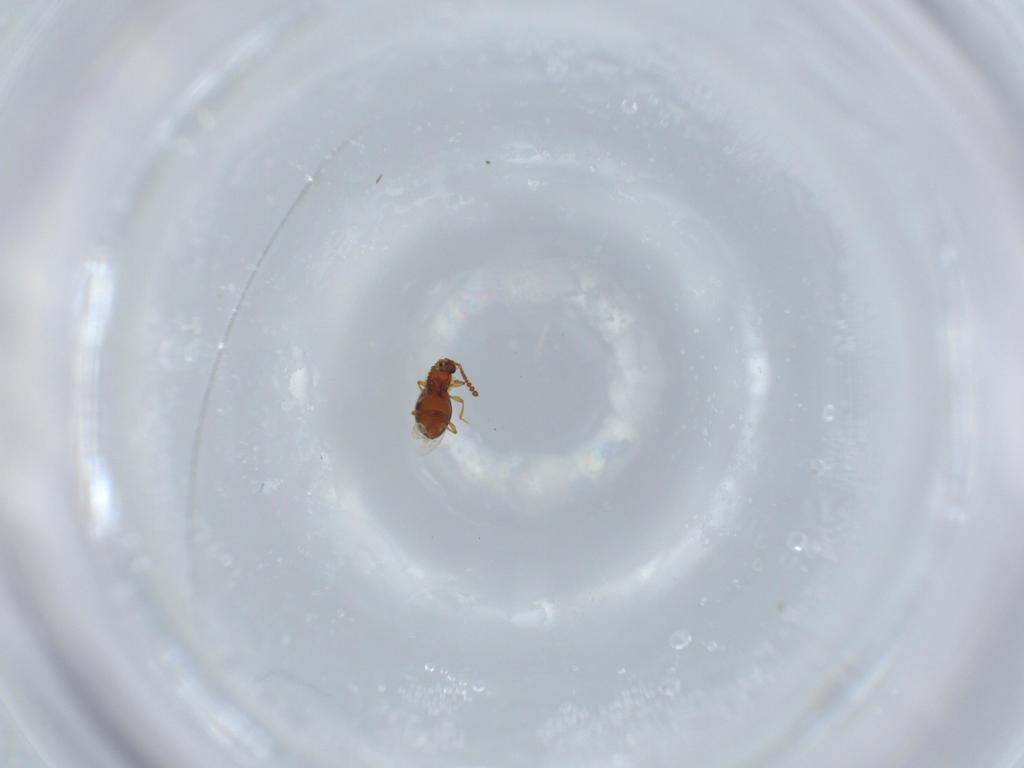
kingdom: Animalia
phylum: Arthropoda
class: Insecta
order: Coleoptera
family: Staphylinidae
